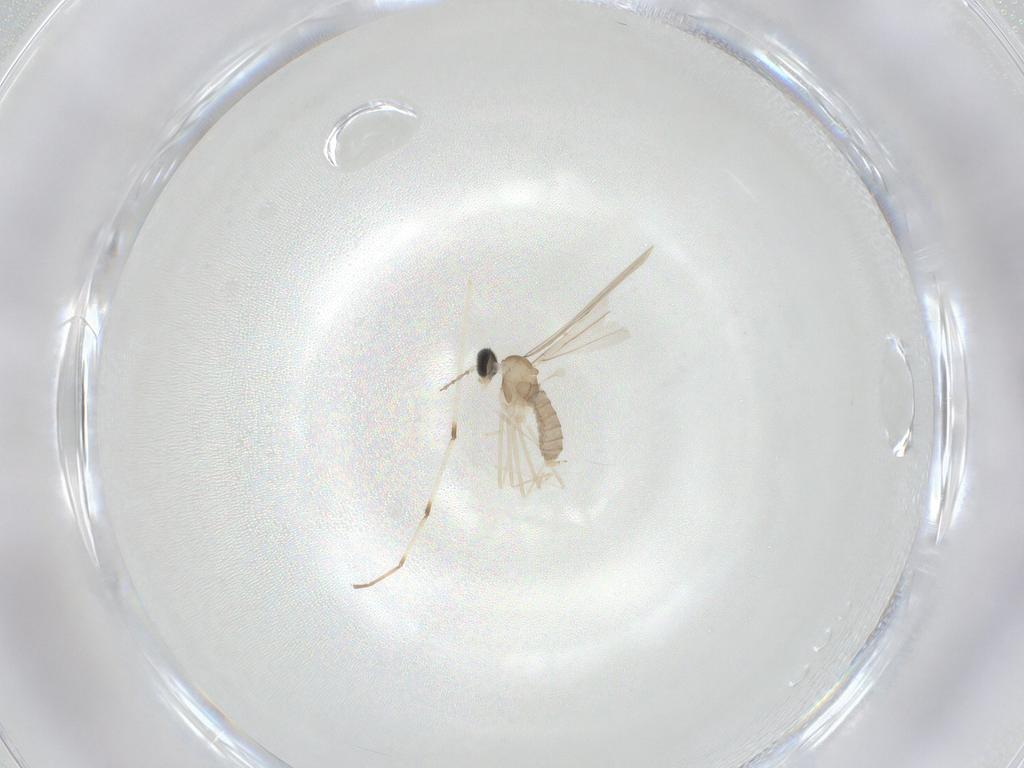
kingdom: Animalia
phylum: Arthropoda
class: Insecta
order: Diptera
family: Cecidomyiidae
